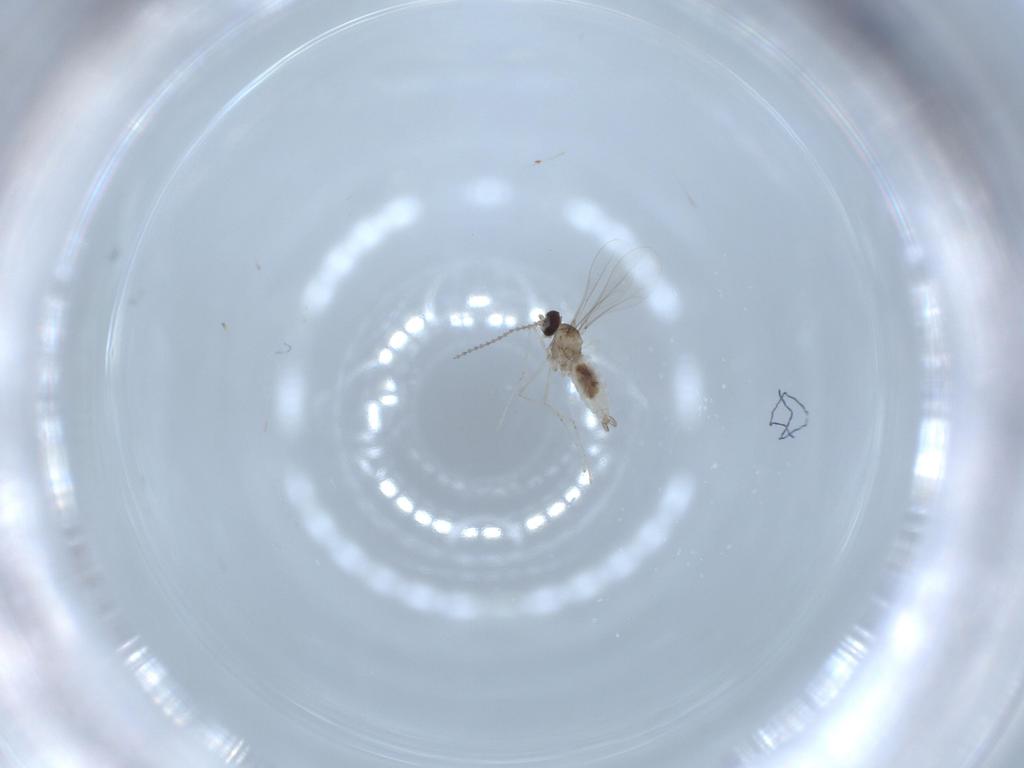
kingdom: Animalia
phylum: Arthropoda
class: Insecta
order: Diptera
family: Cecidomyiidae
